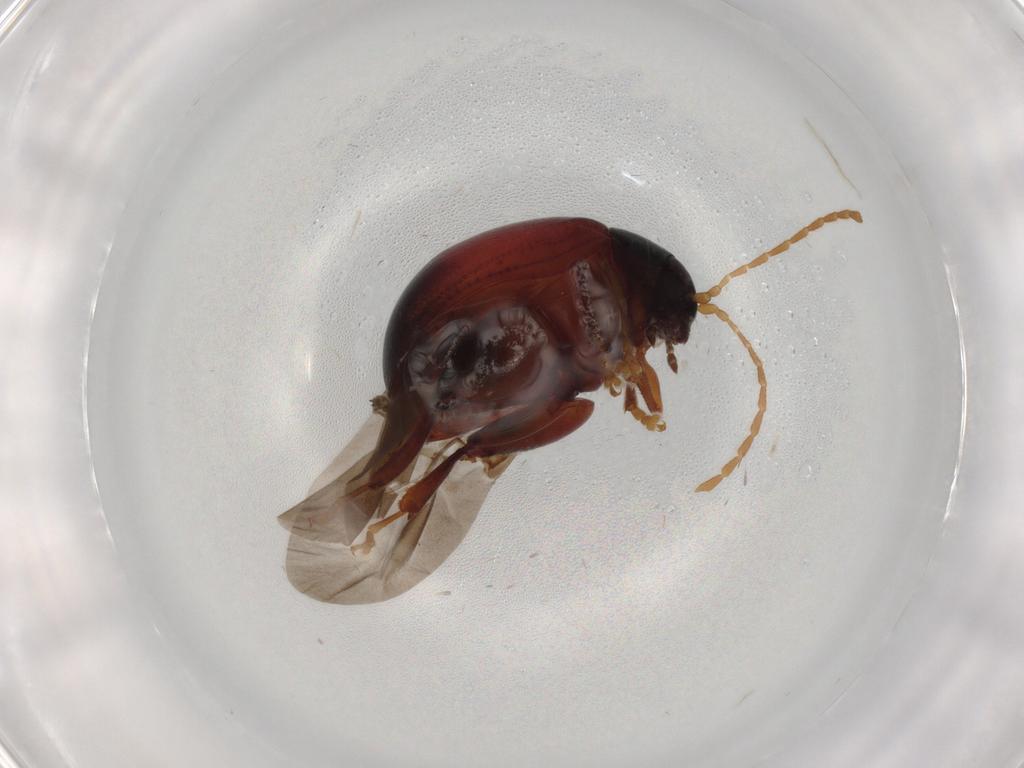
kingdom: Animalia
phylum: Arthropoda
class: Insecta
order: Coleoptera
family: Chrysomelidae
